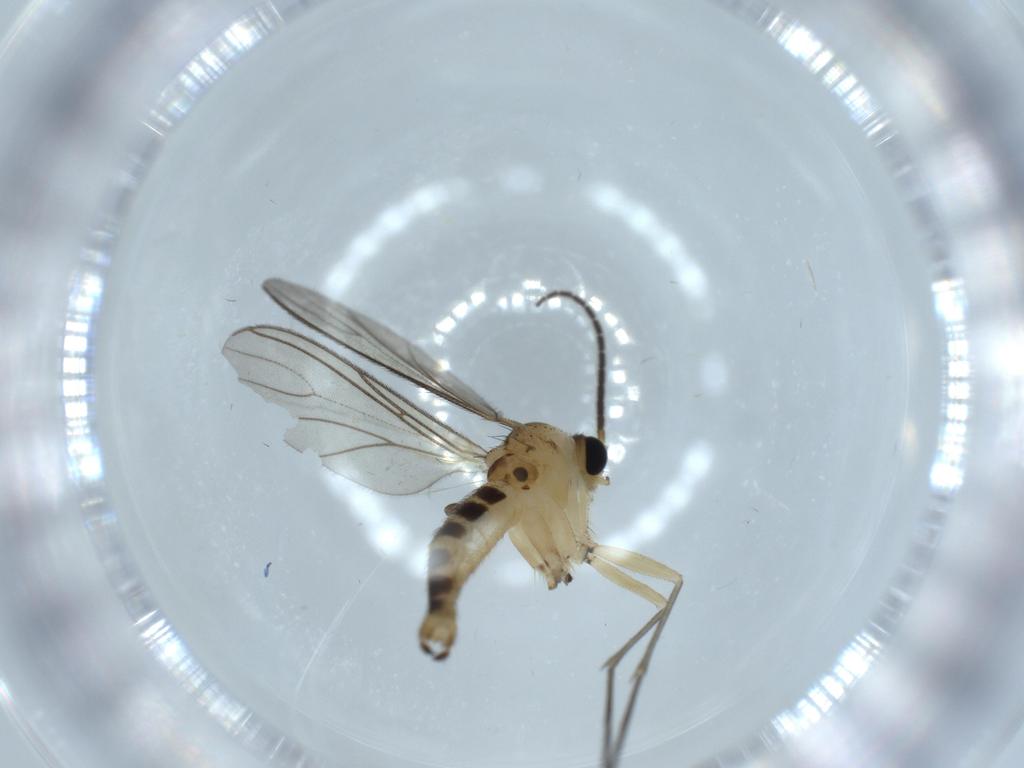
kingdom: Animalia
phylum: Arthropoda
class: Insecta
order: Diptera
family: Sciaridae
